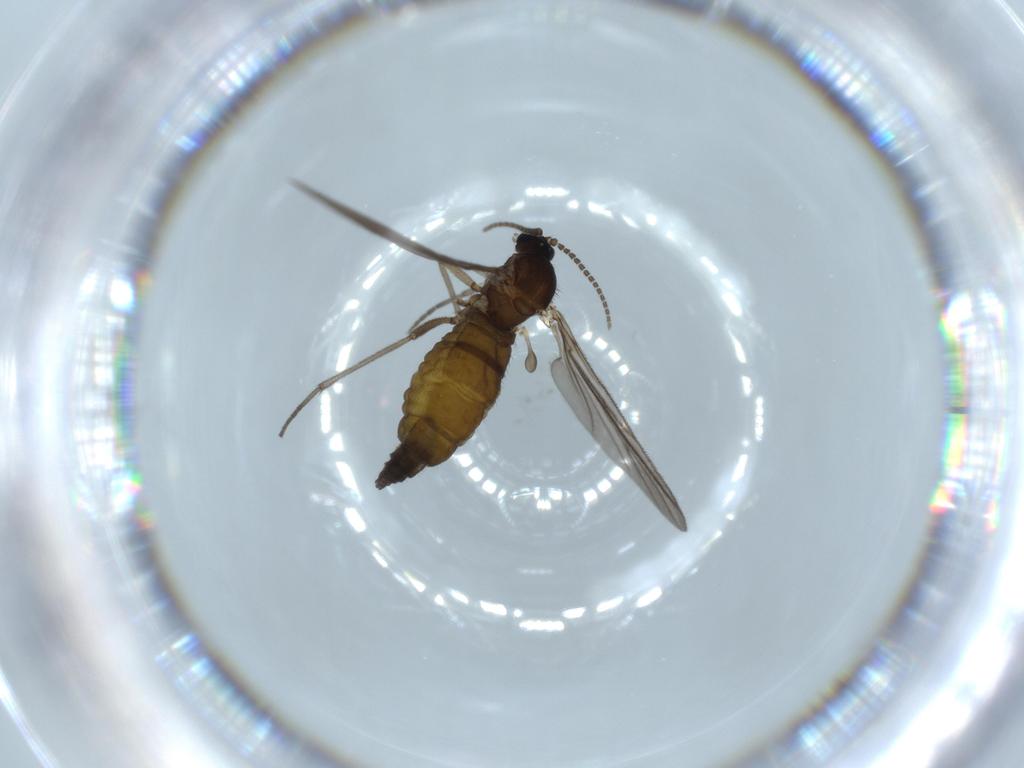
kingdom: Animalia
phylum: Arthropoda
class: Insecta
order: Diptera
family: Sciaridae
